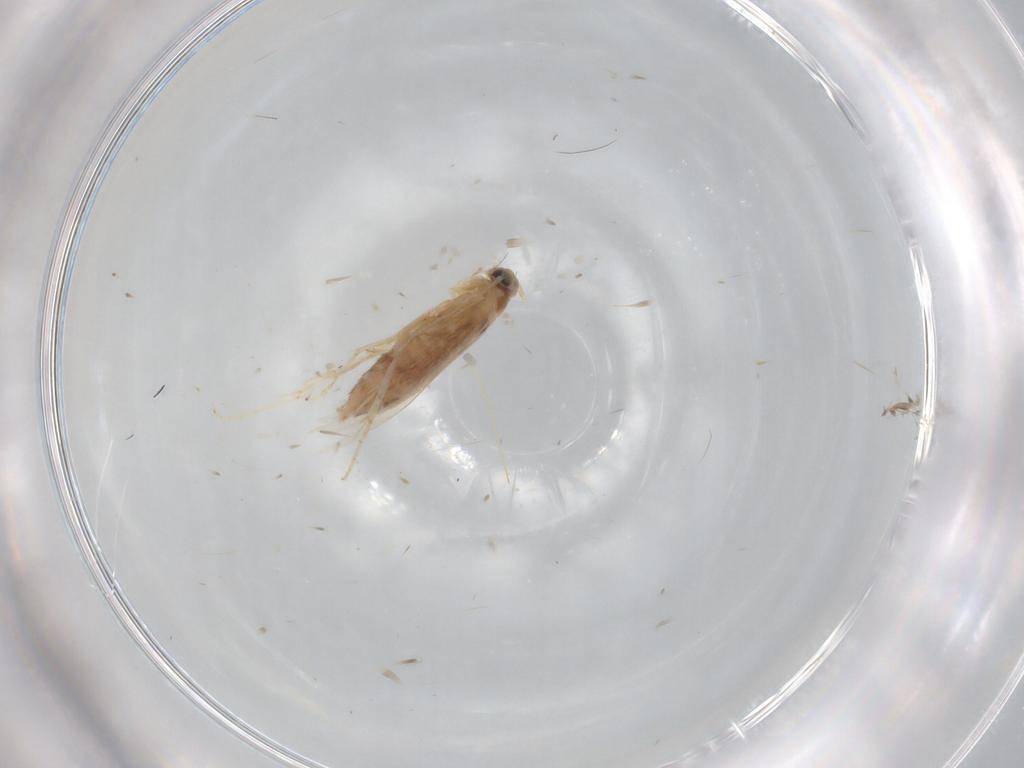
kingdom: Animalia
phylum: Arthropoda
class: Insecta
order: Lepidoptera
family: Nepticulidae
